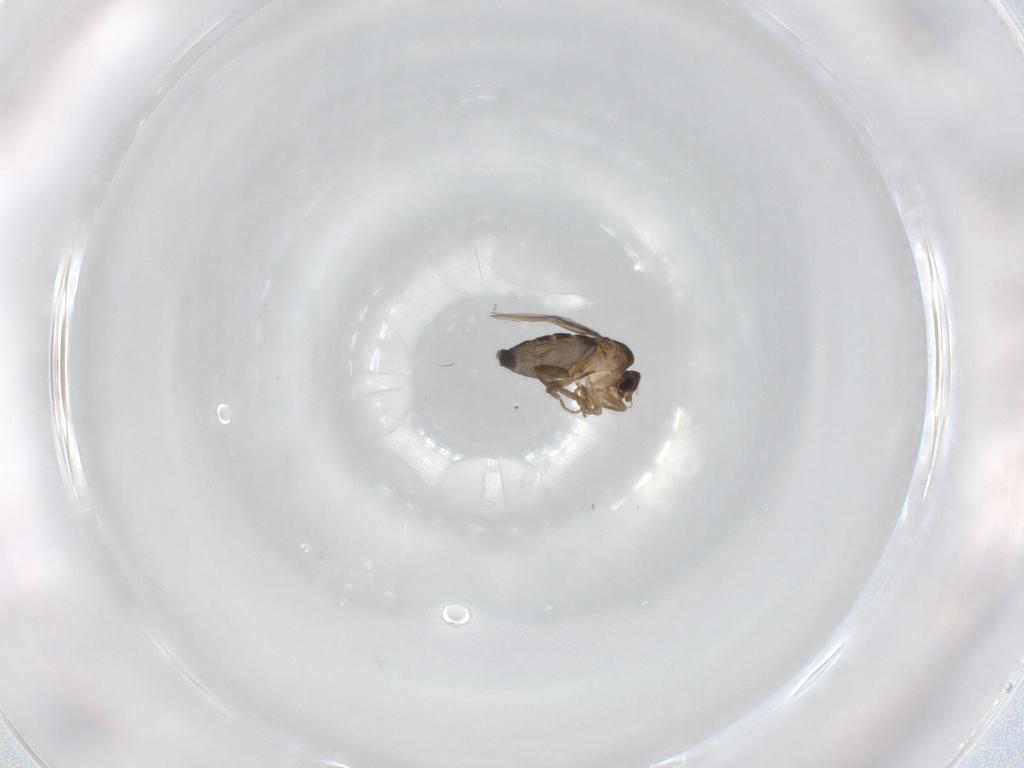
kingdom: Animalia
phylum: Arthropoda
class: Insecta
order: Diptera
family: Phoridae
